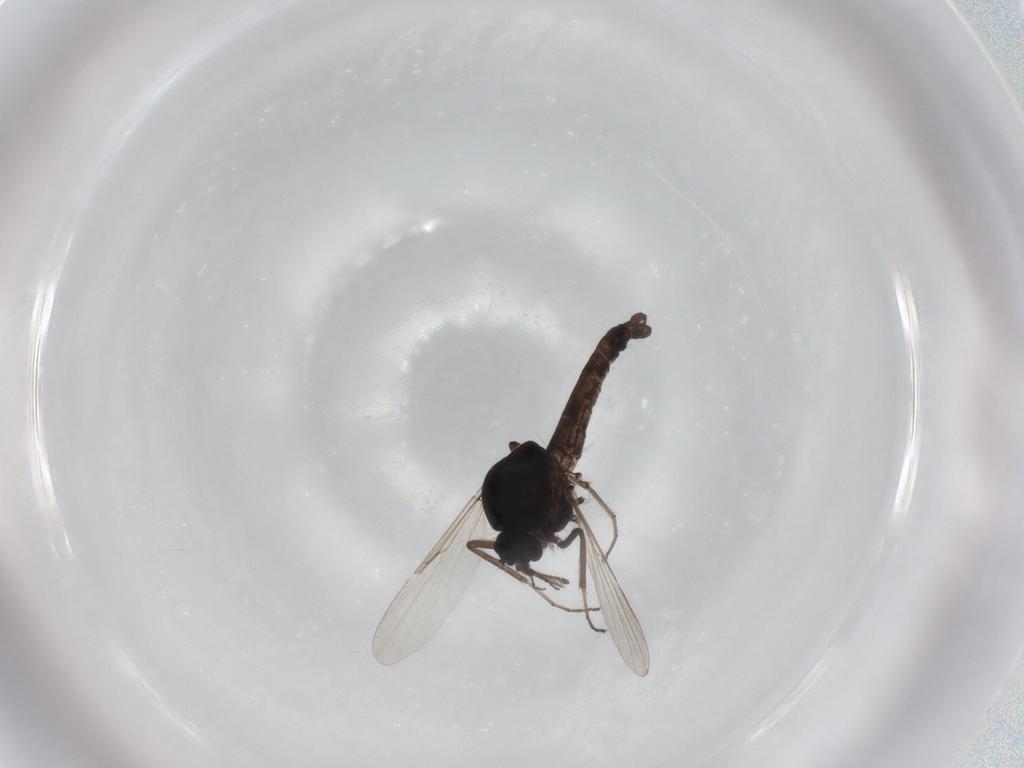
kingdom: Animalia
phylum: Arthropoda
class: Insecta
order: Diptera
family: Ceratopogonidae
